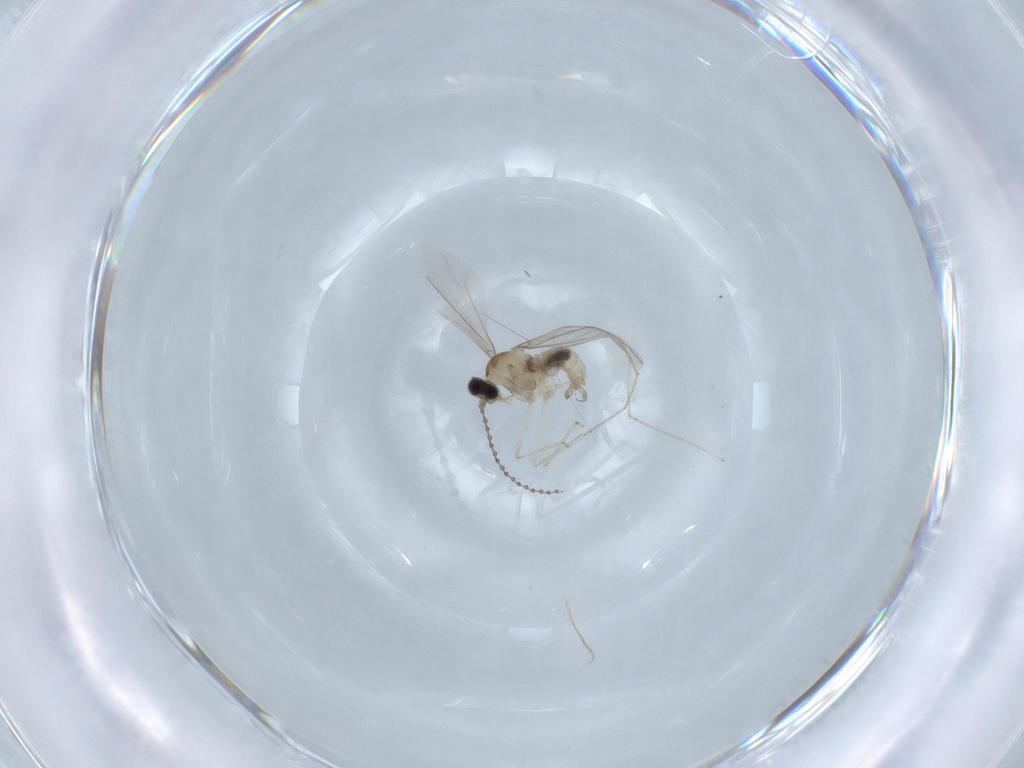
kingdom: Animalia
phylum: Arthropoda
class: Insecta
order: Diptera
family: Cecidomyiidae
